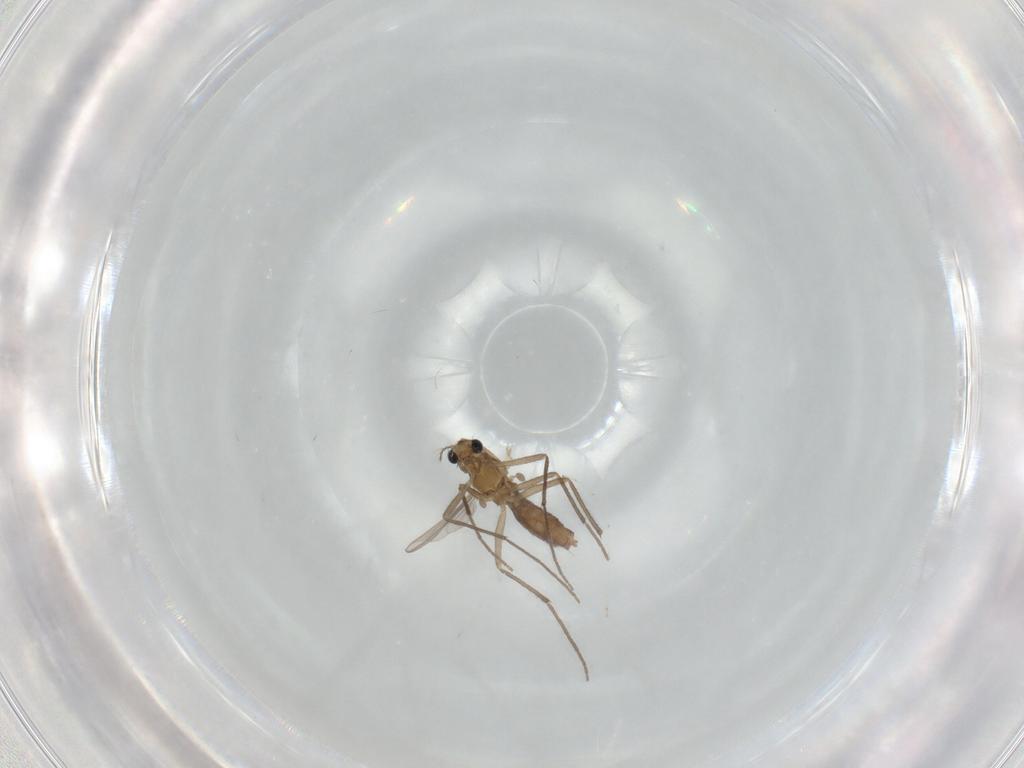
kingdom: Animalia
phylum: Arthropoda
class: Insecta
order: Diptera
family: Chironomidae
